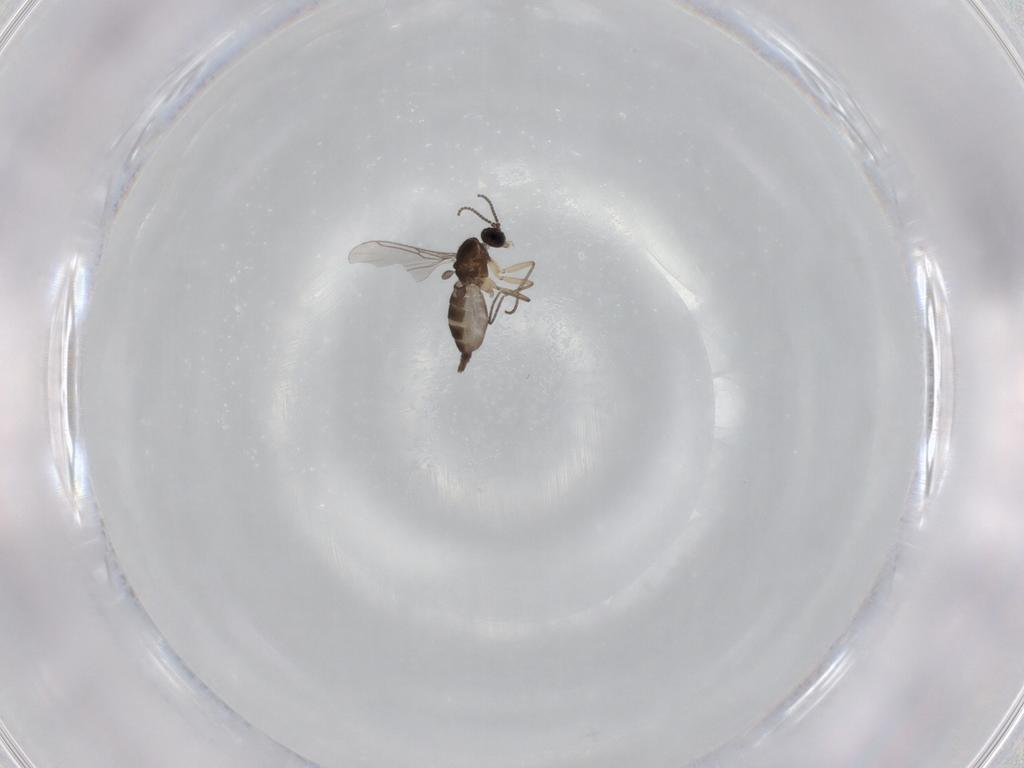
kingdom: Animalia
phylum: Arthropoda
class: Insecta
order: Diptera
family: Sciaridae
